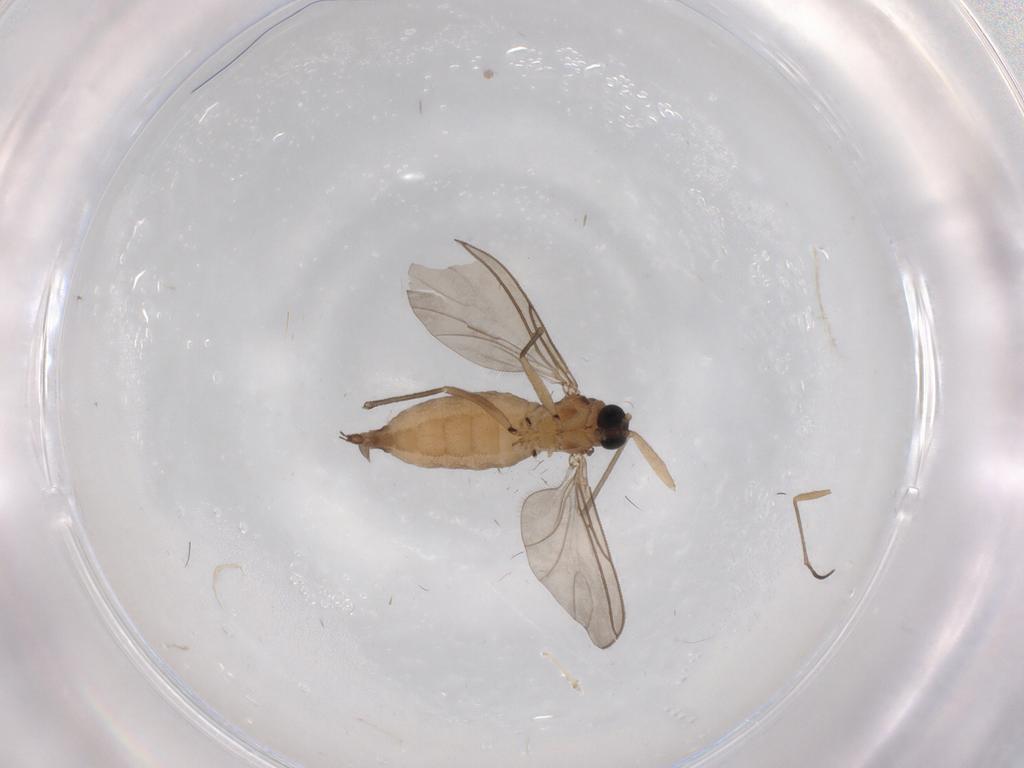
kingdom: Animalia
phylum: Arthropoda
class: Insecta
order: Diptera
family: Sciaridae
